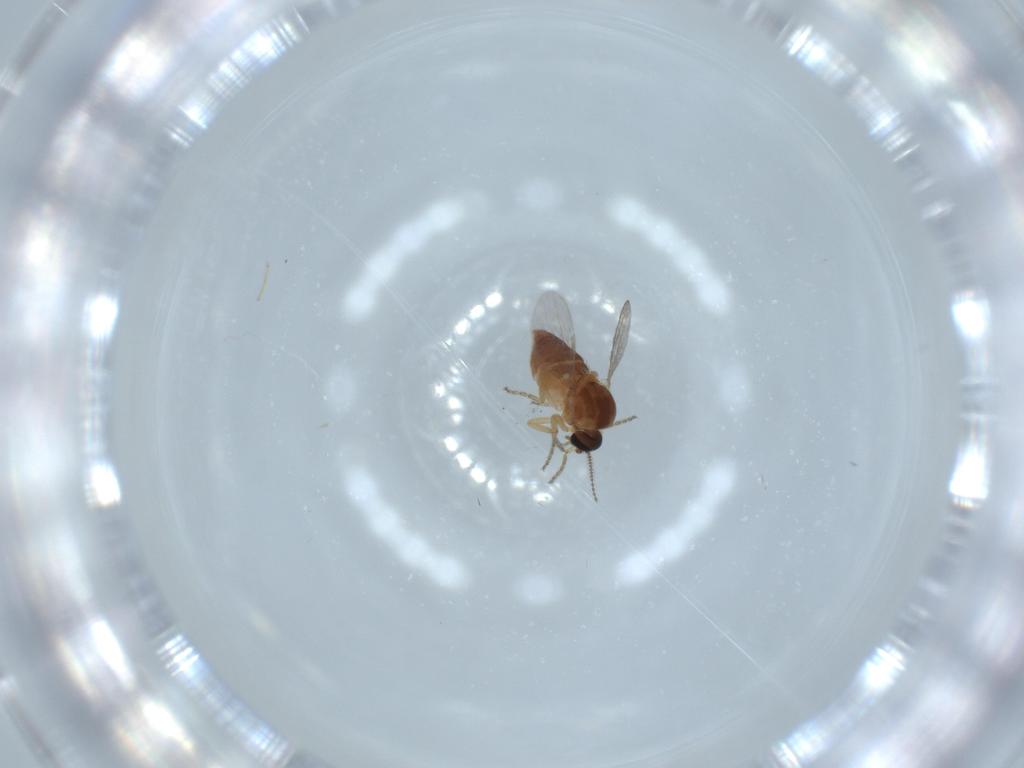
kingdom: Animalia
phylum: Arthropoda
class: Insecta
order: Diptera
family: Ceratopogonidae
